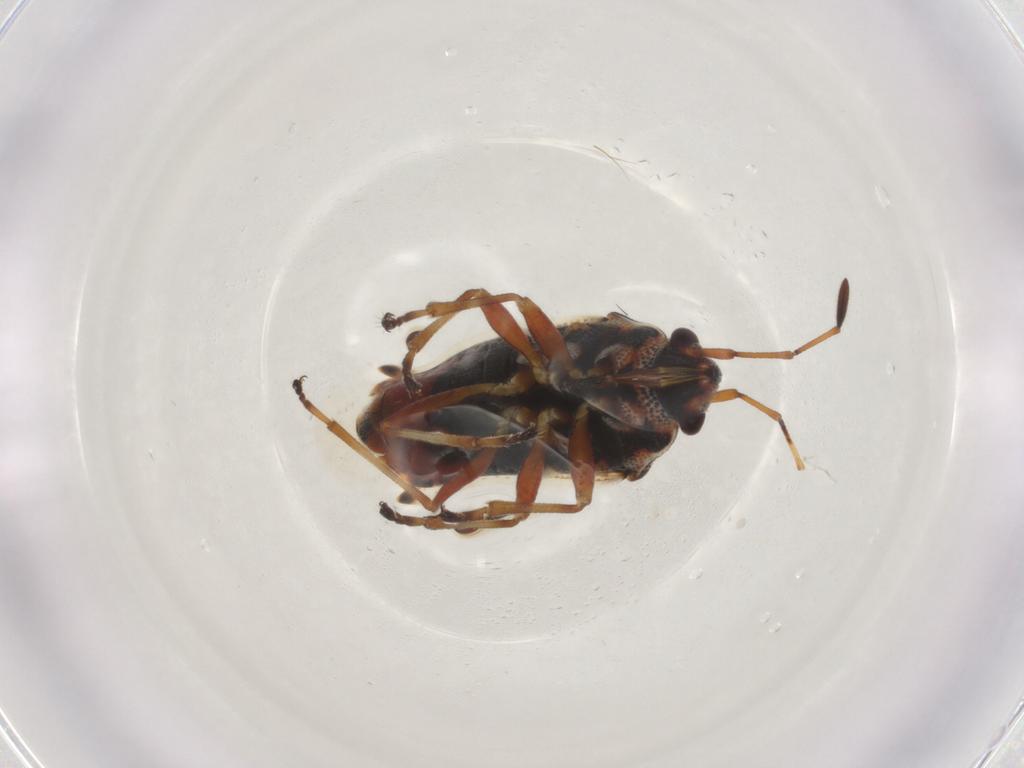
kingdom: Animalia
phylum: Arthropoda
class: Insecta
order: Hemiptera
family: Lygaeidae
